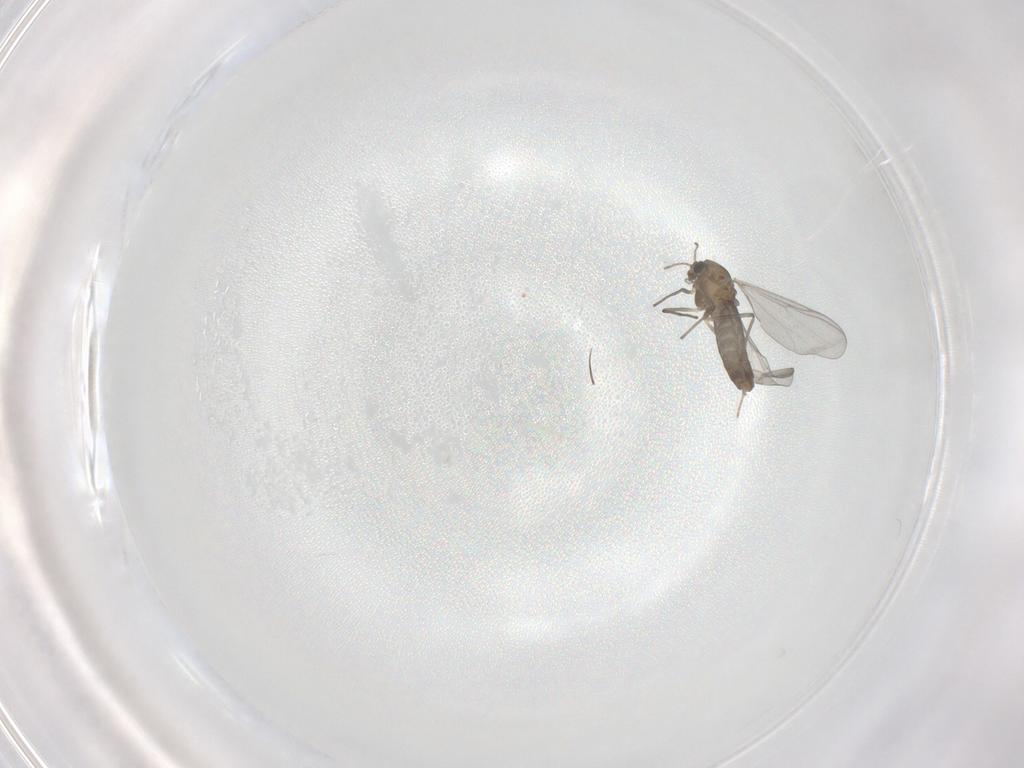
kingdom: Animalia
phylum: Arthropoda
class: Insecta
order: Diptera
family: Chironomidae
